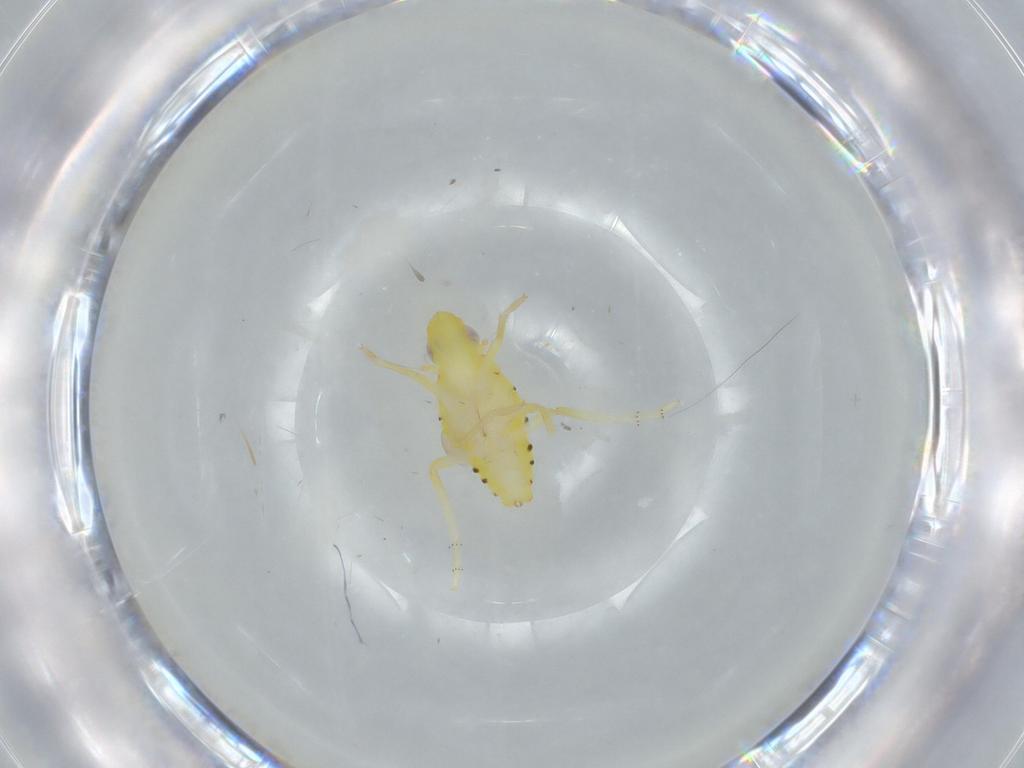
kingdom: Animalia
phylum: Arthropoda
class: Insecta
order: Hemiptera
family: Tropiduchidae
